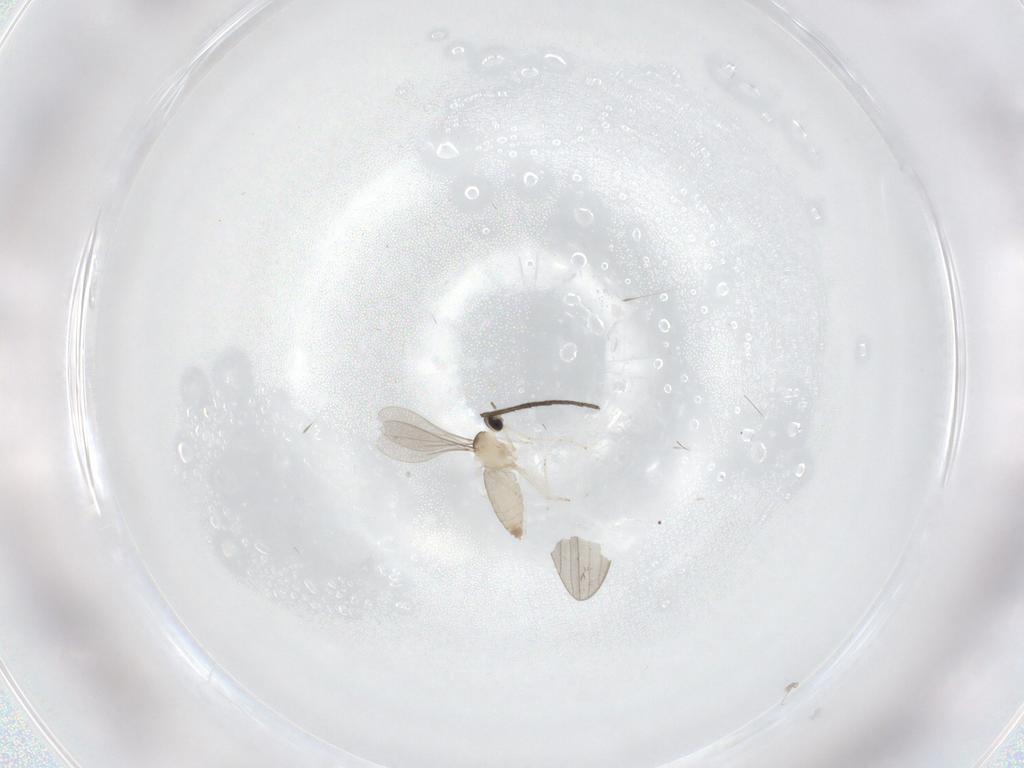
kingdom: Animalia
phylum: Arthropoda
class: Insecta
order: Diptera
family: Cecidomyiidae
